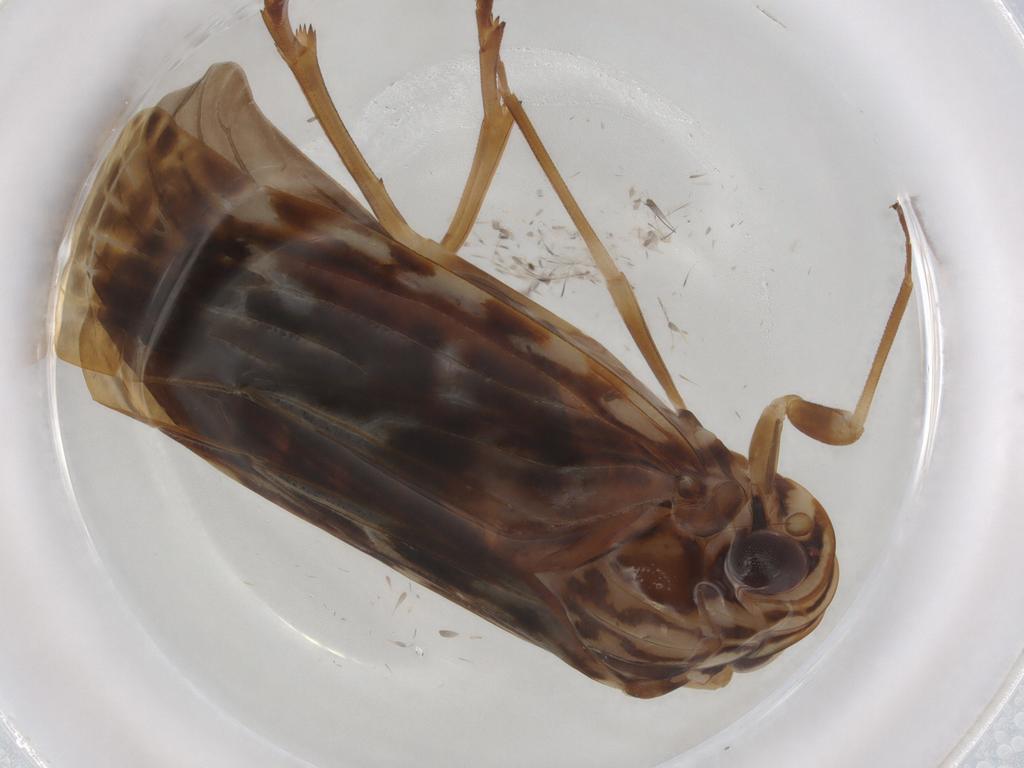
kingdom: Animalia
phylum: Arthropoda
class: Insecta
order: Hemiptera
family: Achilidae
